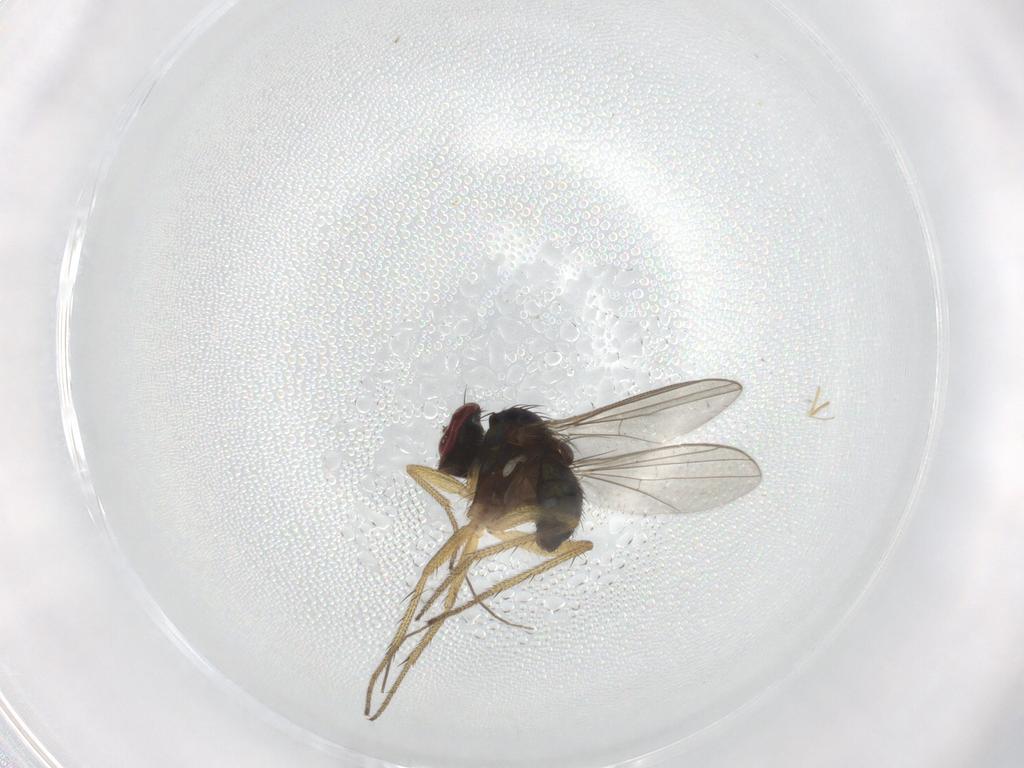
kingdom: Animalia
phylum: Arthropoda
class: Insecta
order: Diptera
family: Dolichopodidae
